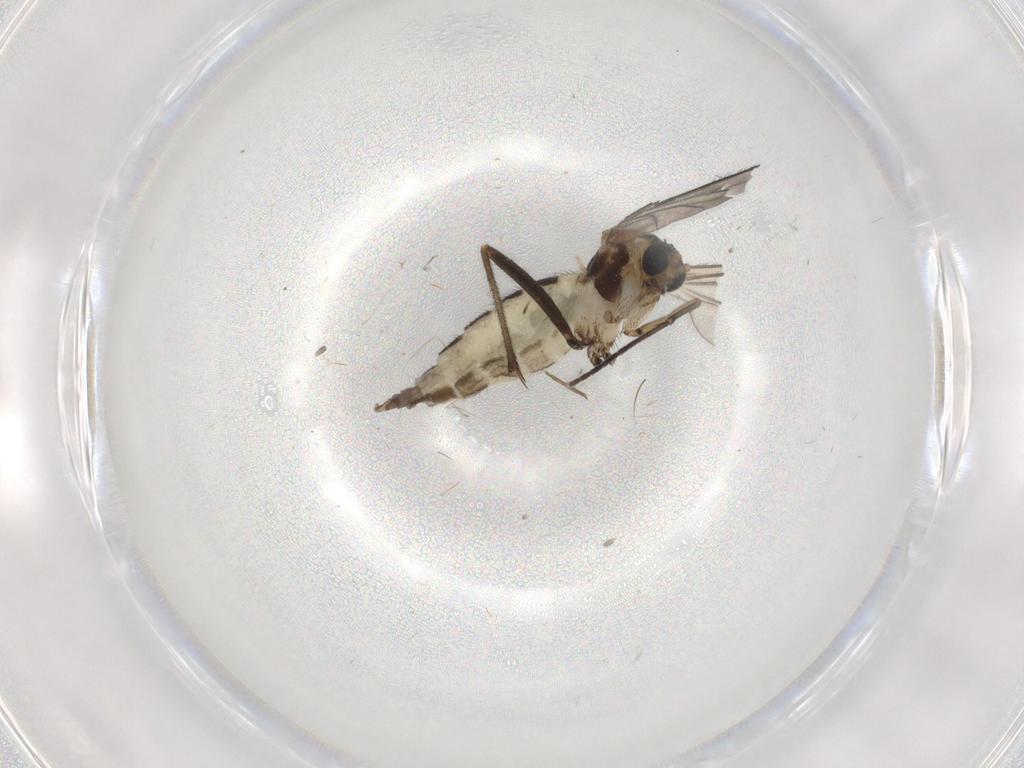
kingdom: Animalia
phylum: Arthropoda
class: Insecta
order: Diptera
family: Sciaridae
